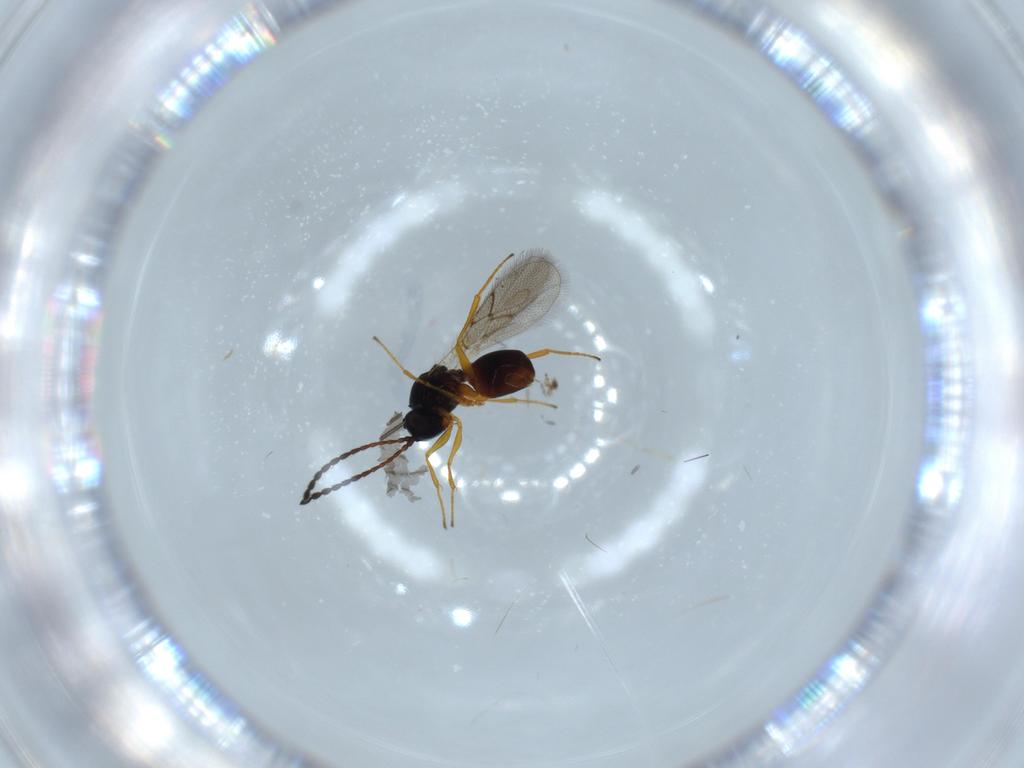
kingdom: Animalia
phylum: Arthropoda
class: Insecta
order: Hymenoptera
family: Figitidae
